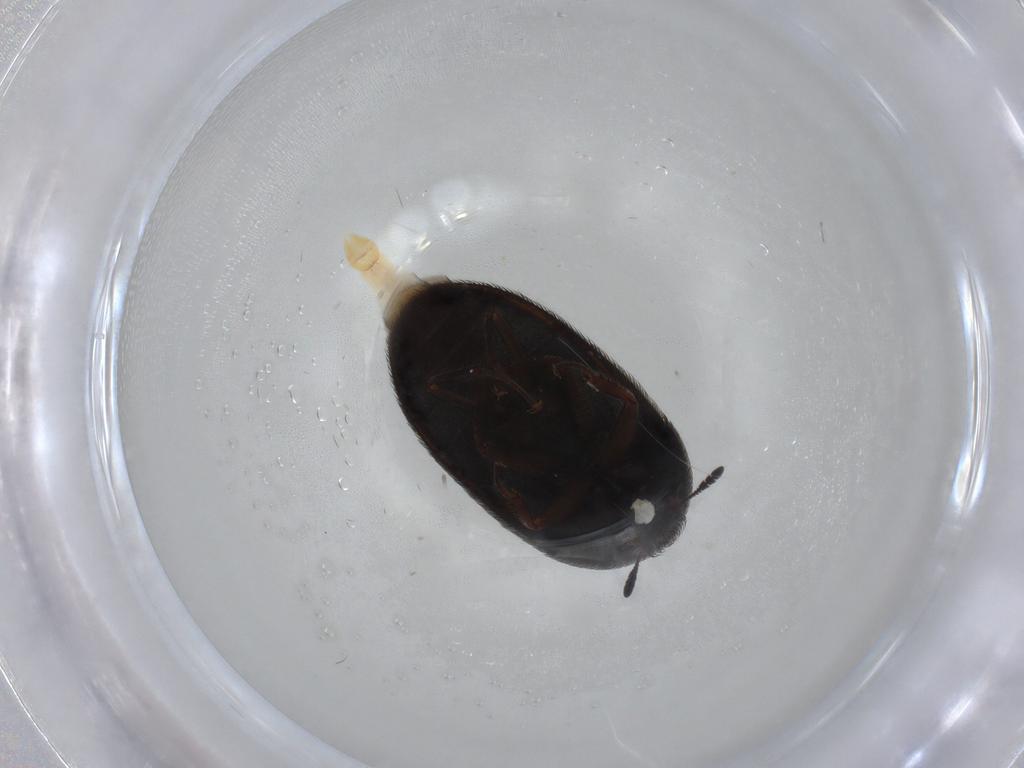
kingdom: Animalia
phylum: Arthropoda
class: Insecta
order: Coleoptera
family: Dermestidae
